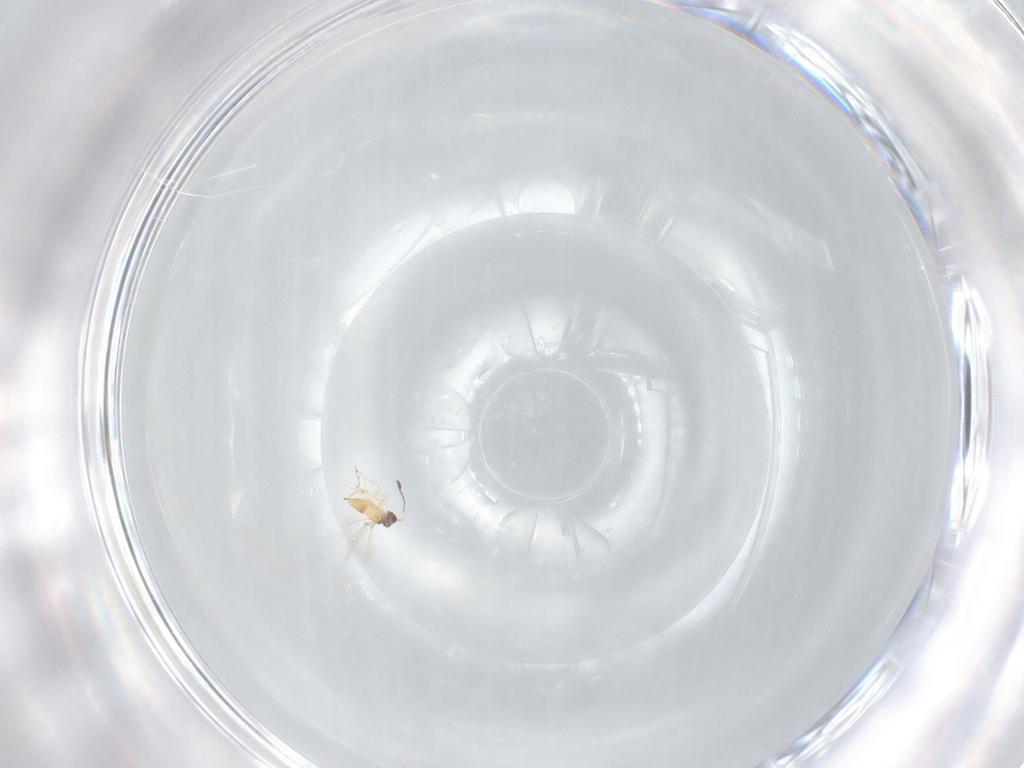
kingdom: Animalia
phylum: Arthropoda
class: Insecta
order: Hymenoptera
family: Mymaridae
